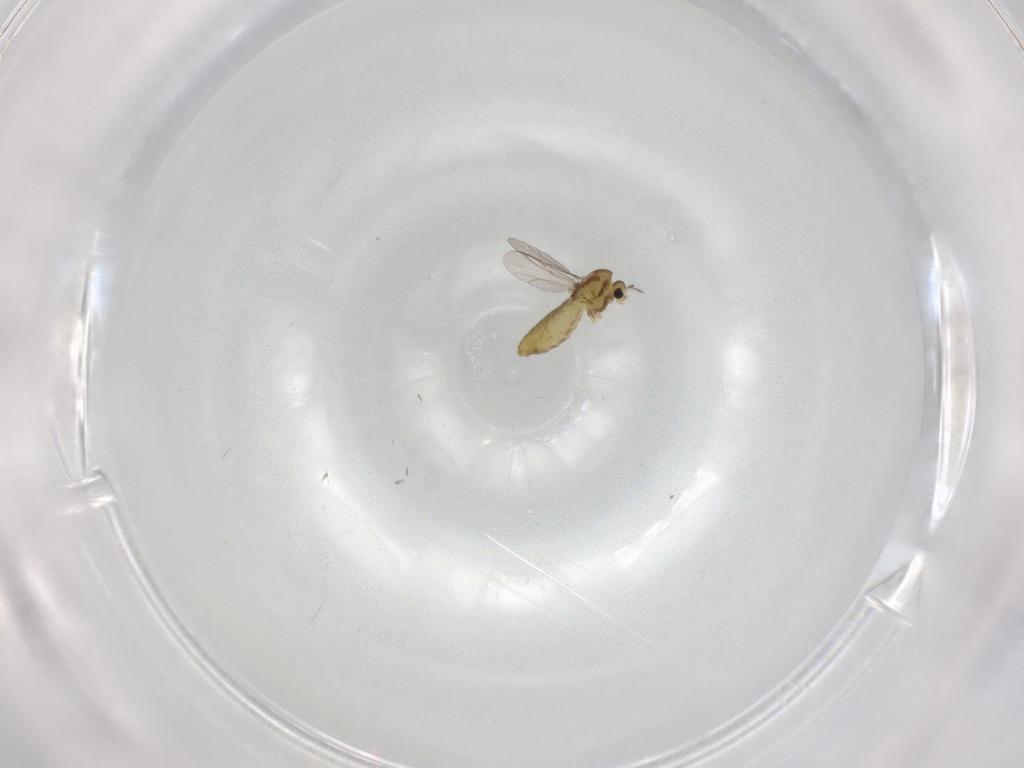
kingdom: Animalia
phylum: Arthropoda
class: Insecta
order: Diptera
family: Chironomidae
